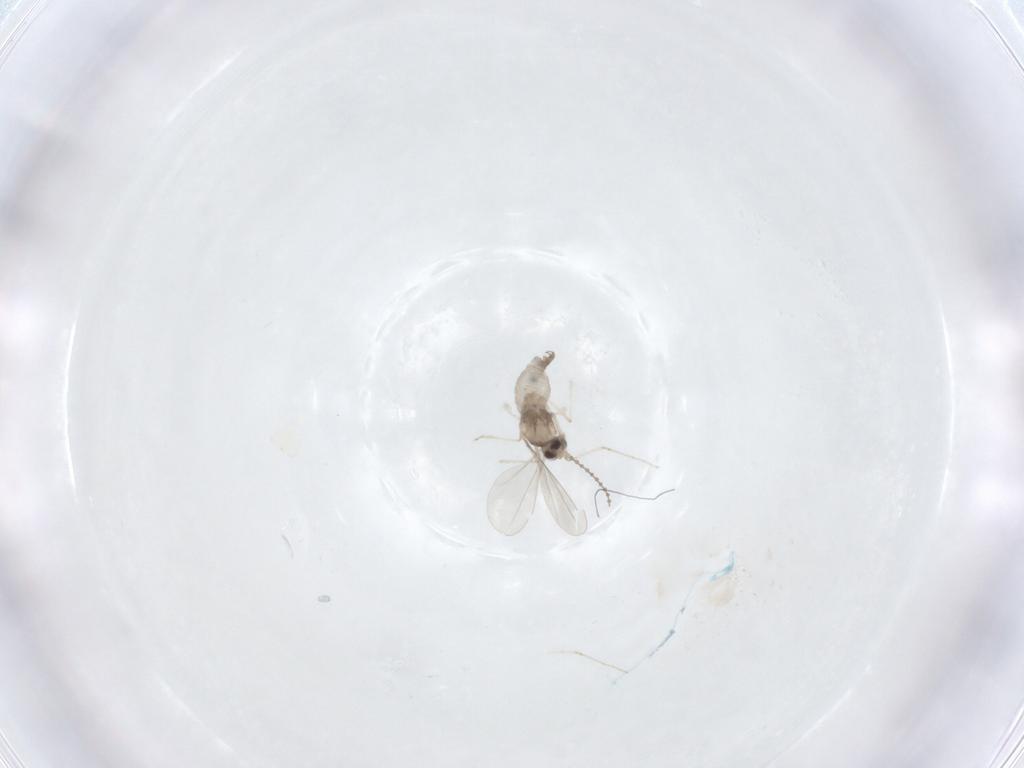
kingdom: Animalia
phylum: Arthropoda
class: Insecta
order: Diptera
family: Cecidomyiidae
